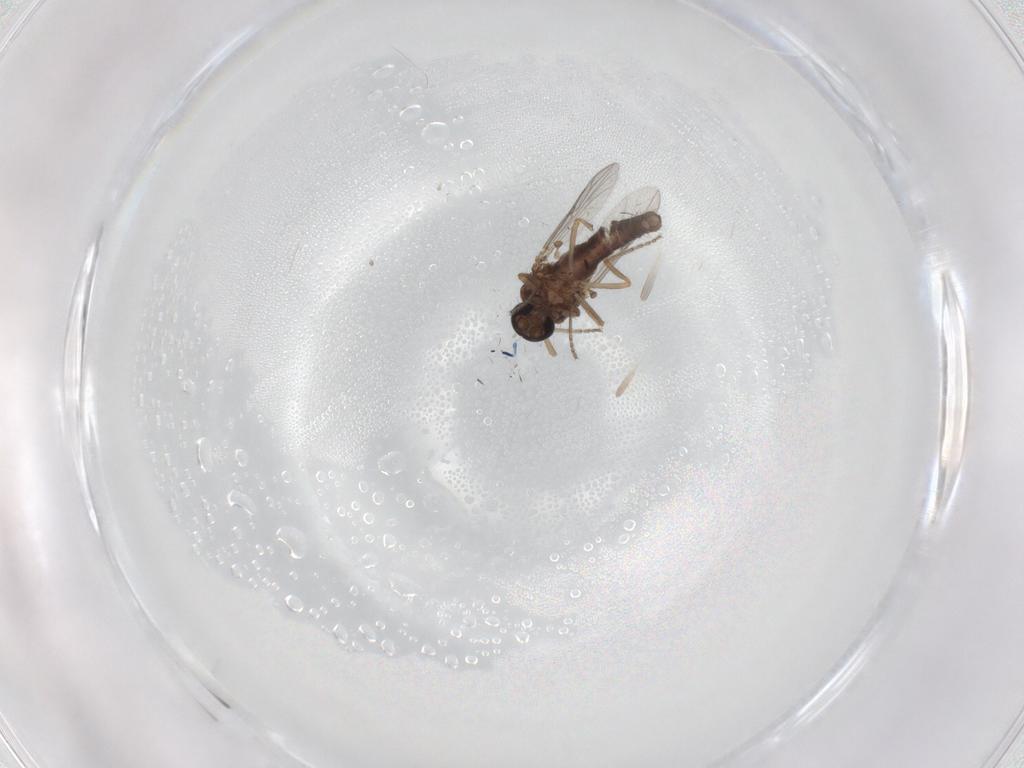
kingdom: Animalia
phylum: Arthropoda
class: Insecta
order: Diptera
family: Ceratopogonidae
